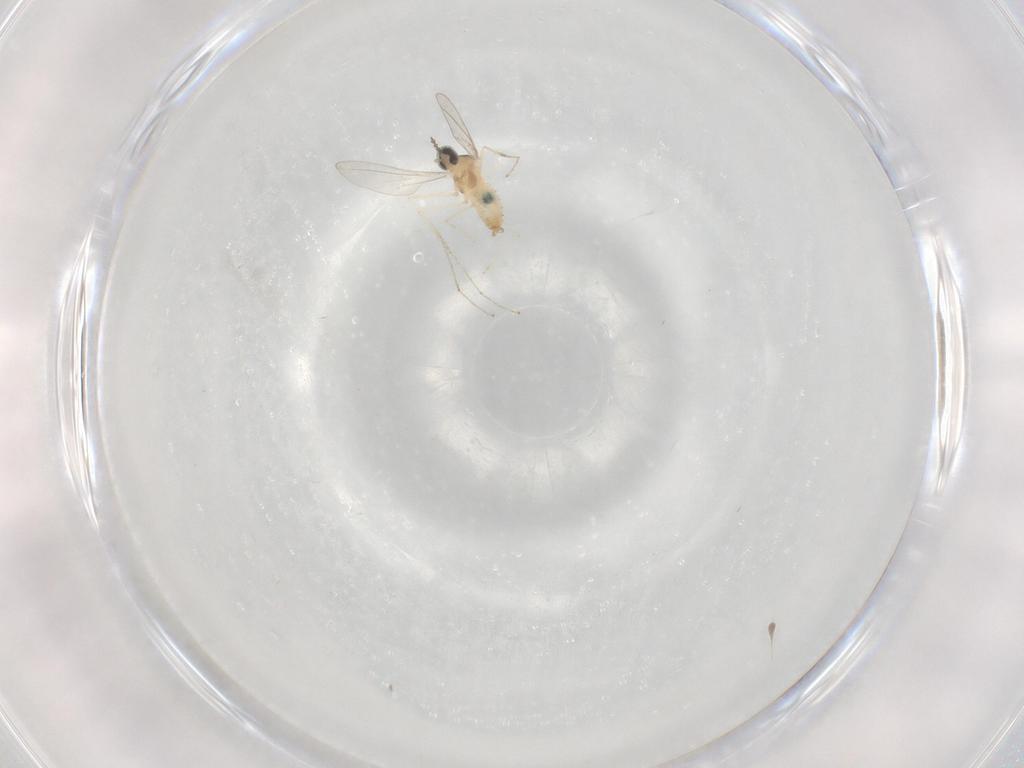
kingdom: Animalia
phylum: Arthropoda
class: Insecta
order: Diptera
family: Cecidomyiidae
